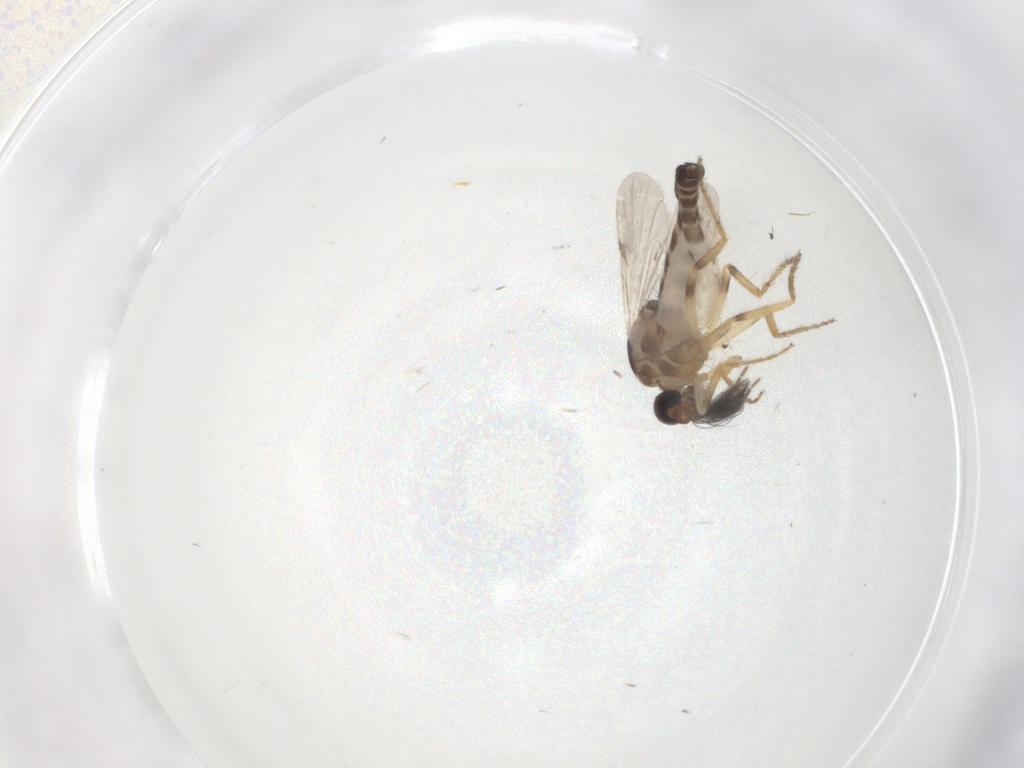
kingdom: Animalia
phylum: Arthropoda
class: Insecta
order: Diptera
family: Ceratopogonidae
